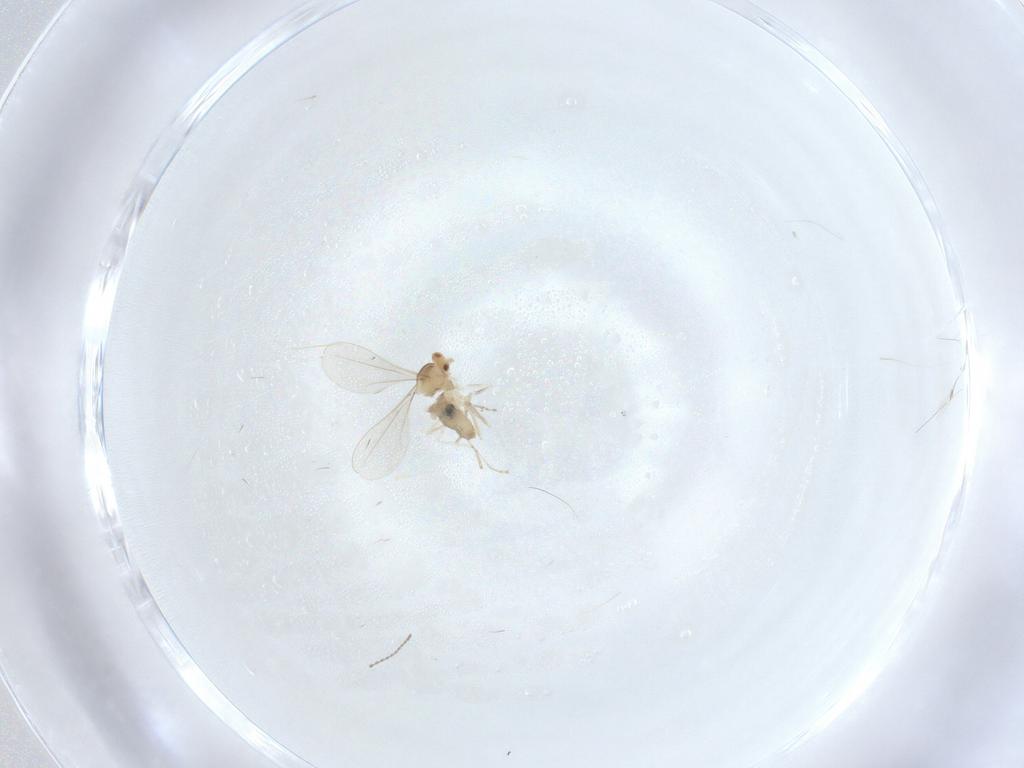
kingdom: Animalia
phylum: Arthropoda
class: Insecta
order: Diptera
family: Cecidomyiidae
